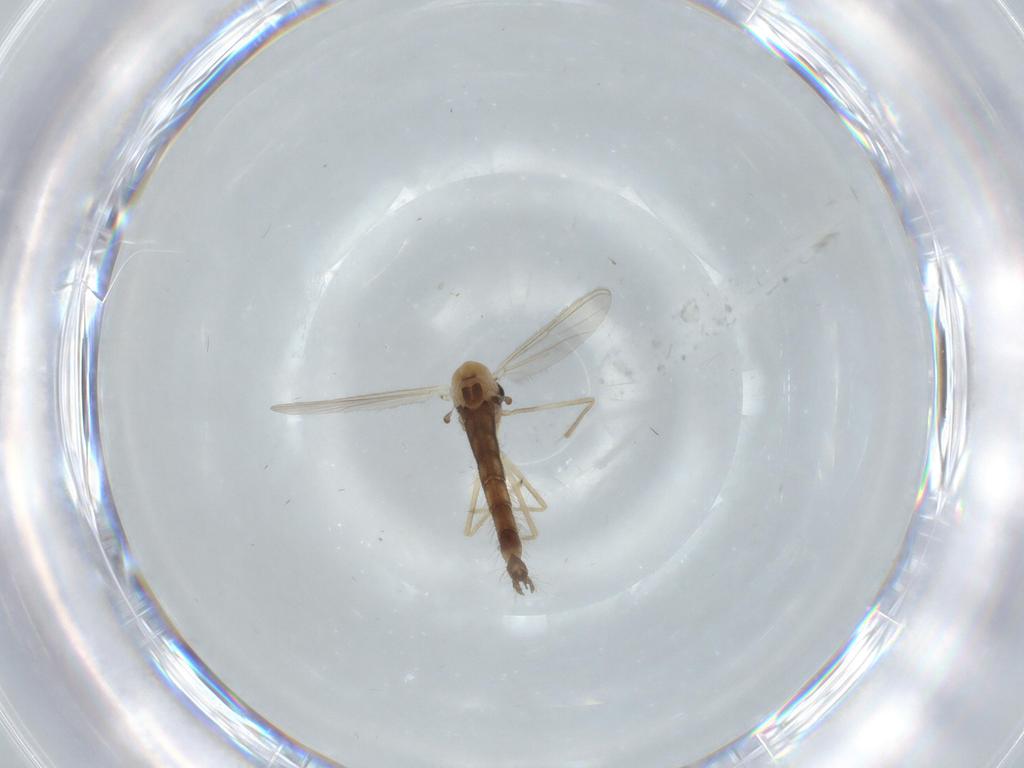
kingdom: Animalia
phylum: Arthropoda
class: Insecta
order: Diptera
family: Chironomidae
